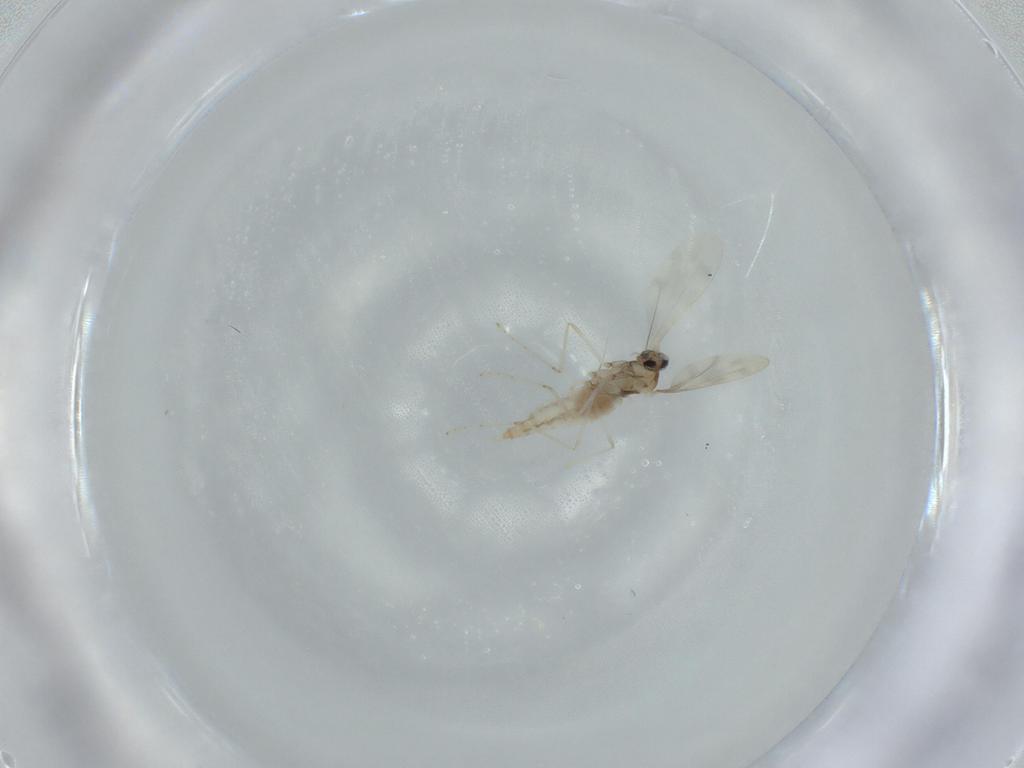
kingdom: Animalia
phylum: Arthropoda
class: Insecta
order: Diptera
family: Cecidomyiidae
